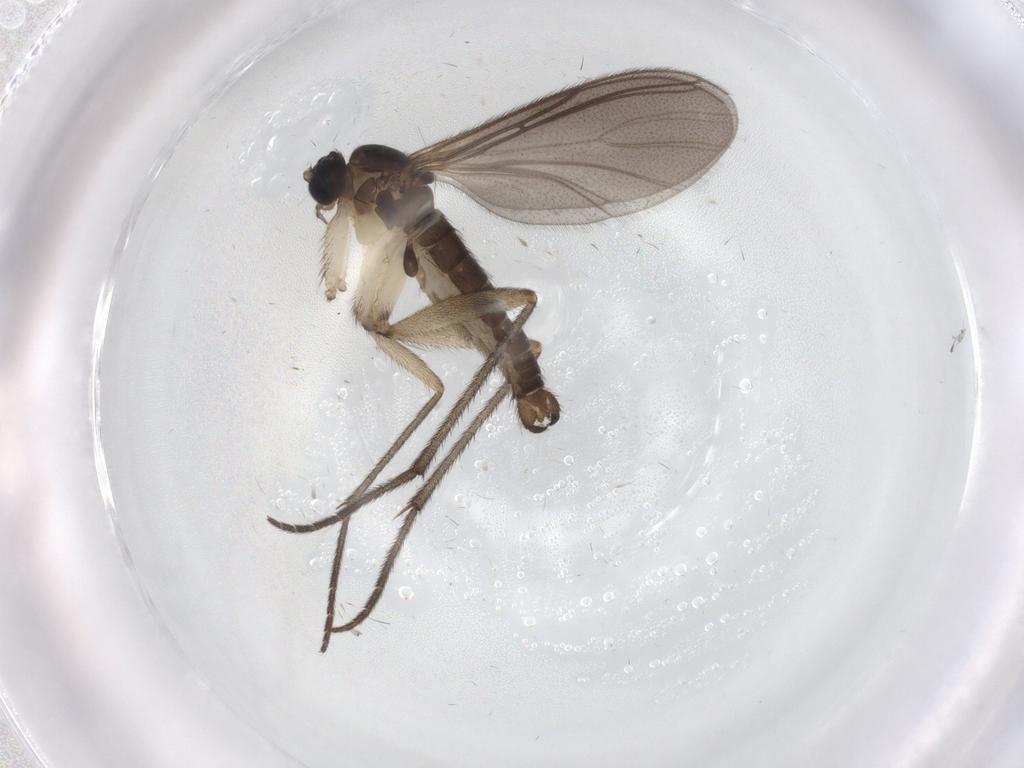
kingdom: Animalia
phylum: Arthropoda
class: Insecta
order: Diptera
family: Sciaridae
